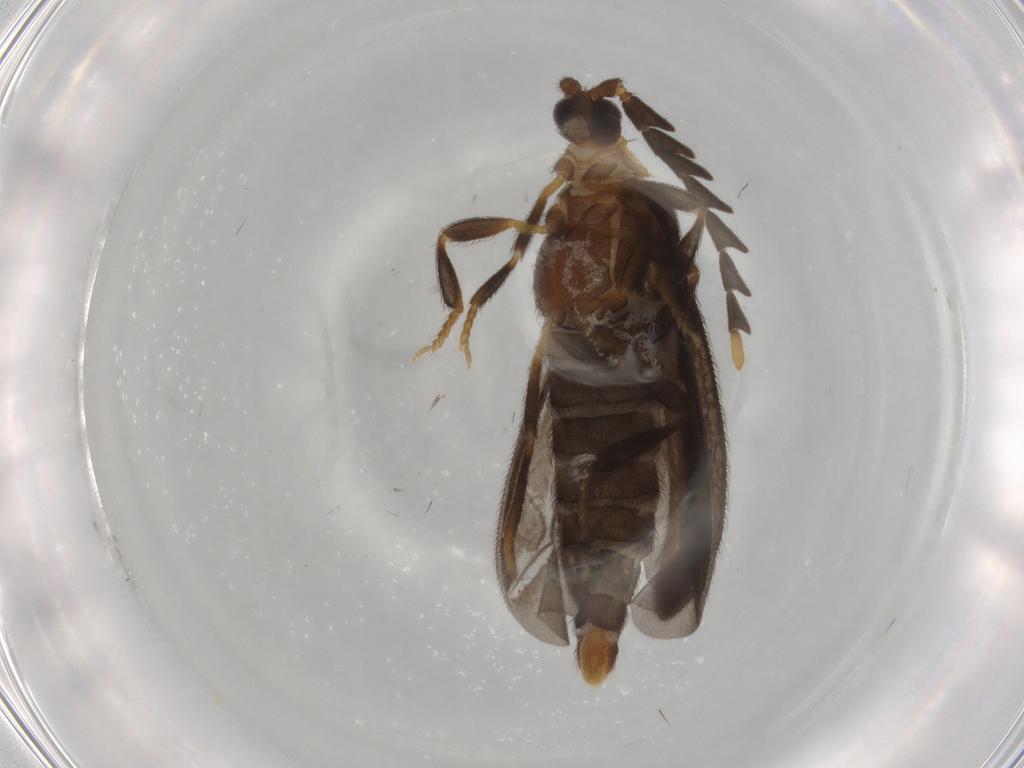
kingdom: Animalia
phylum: Arthropoda
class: Insecta
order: Coleoptera
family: Lycidae
